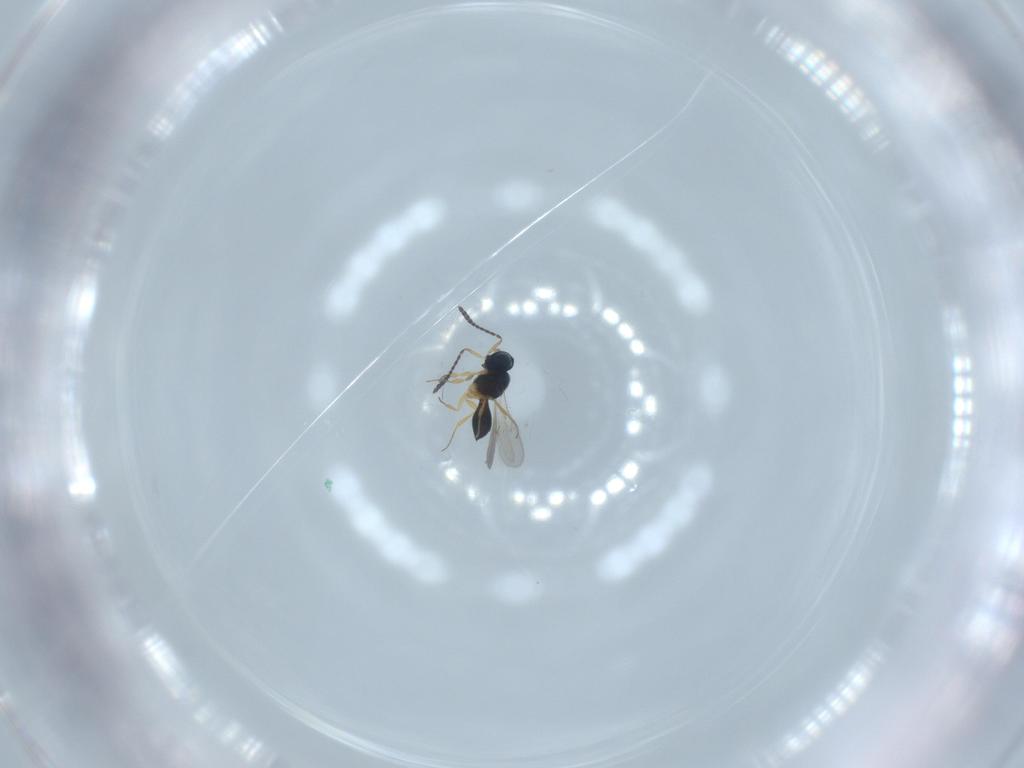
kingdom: Animalia
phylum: Arthropoda
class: Insecta
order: Hymenoptera
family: Scelionidae
